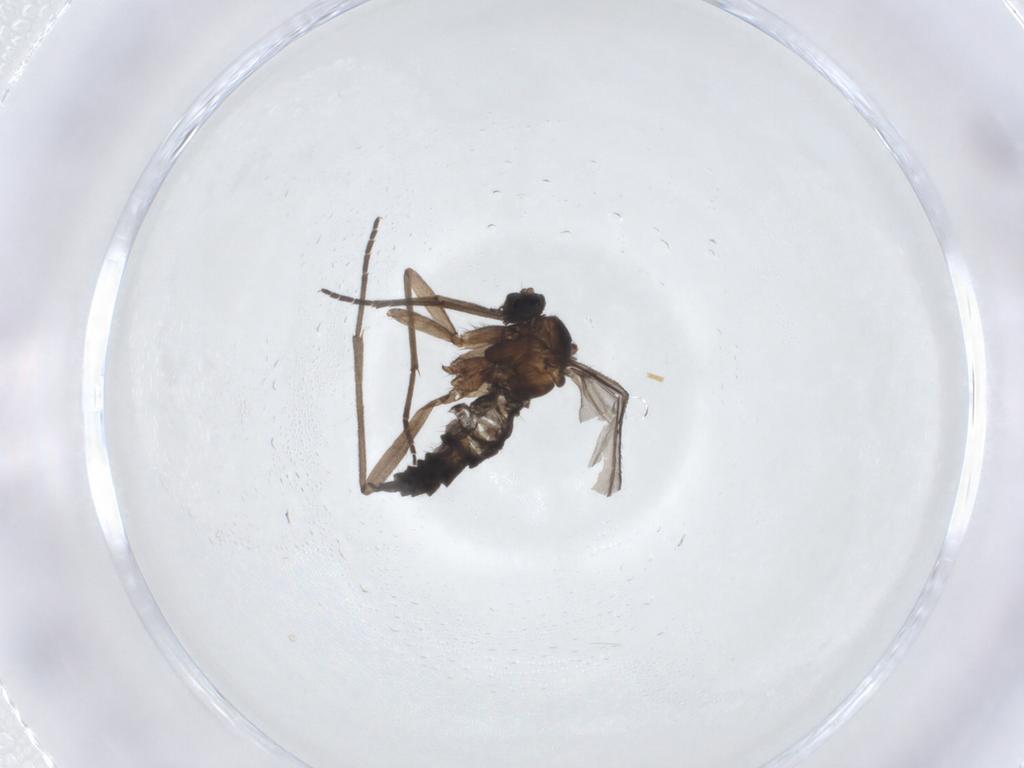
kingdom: Animalia
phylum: Arthropoda
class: Insecta
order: Diptera
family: Sciaridae
